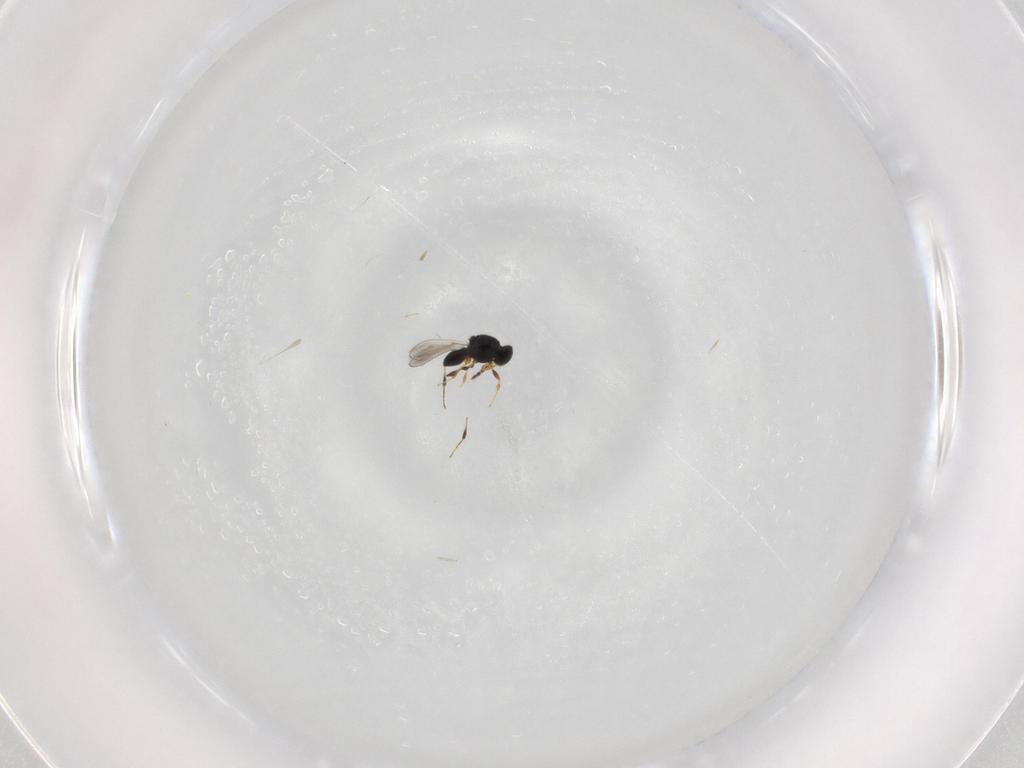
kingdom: Animalia
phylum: Arthropoda
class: Insecta
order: Hymenoptera
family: Platygastridae
